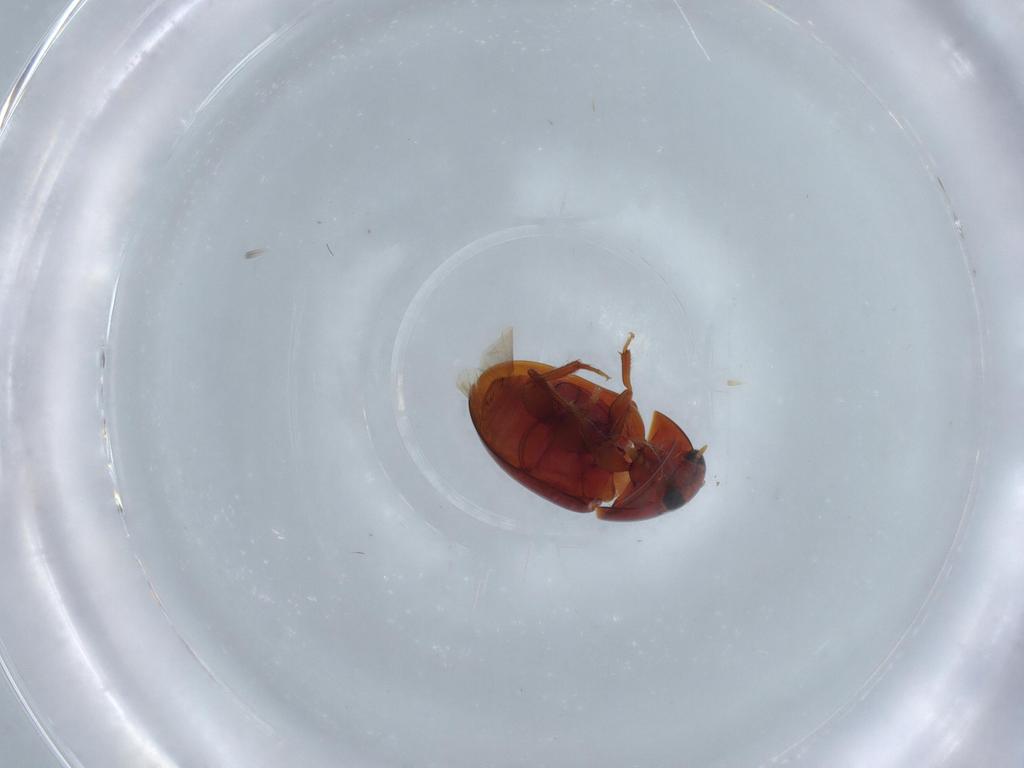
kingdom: Animalia
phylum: Arthropoda
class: Insecta
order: Coleoptera
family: Phalacridae
